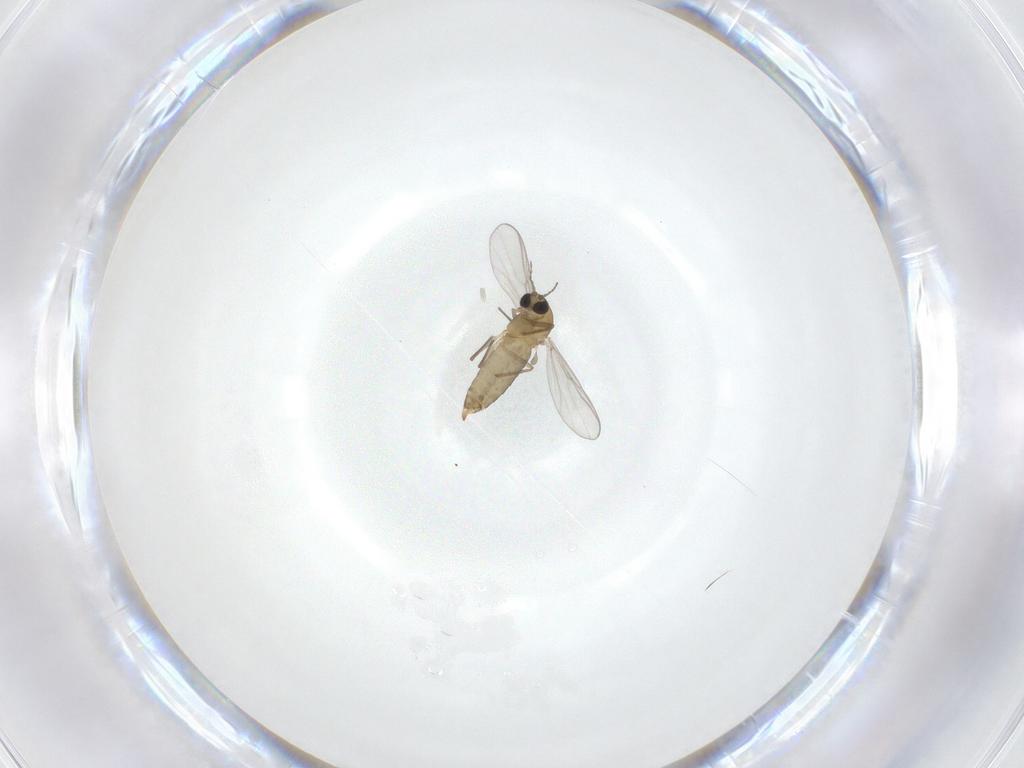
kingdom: Animalia
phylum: Arthropoda
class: Insecta
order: Diptera
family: Chironomidae
